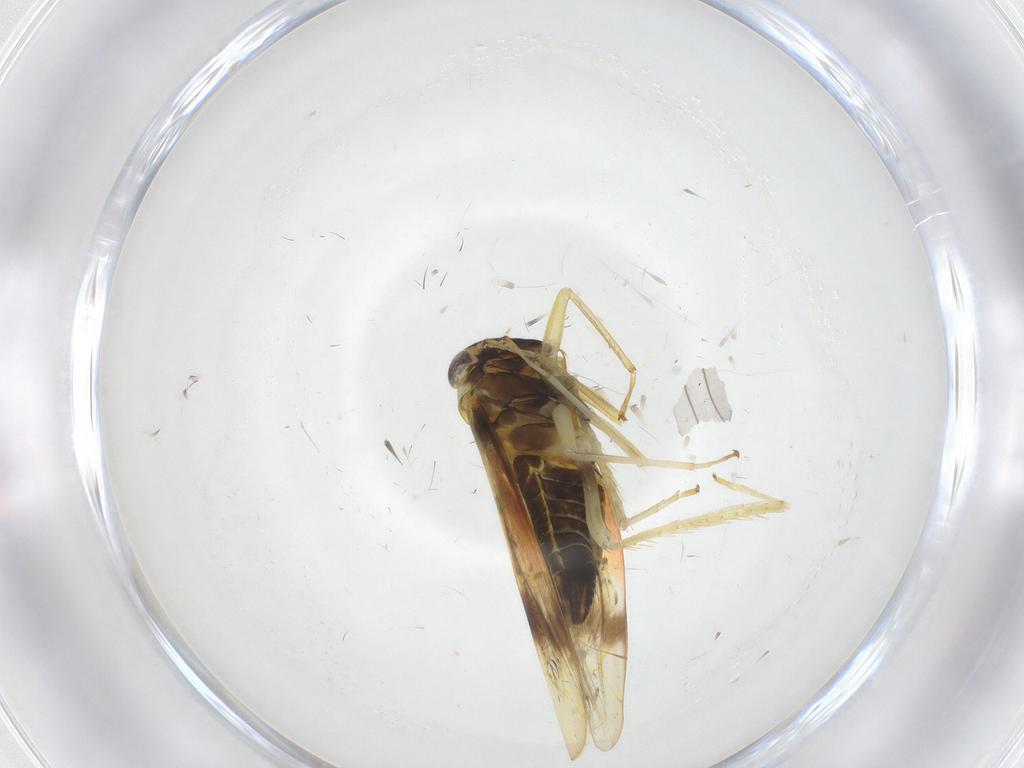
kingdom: Animalia
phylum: Arthropoda
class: Insecta
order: Hemiptera
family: Cicadellidae
